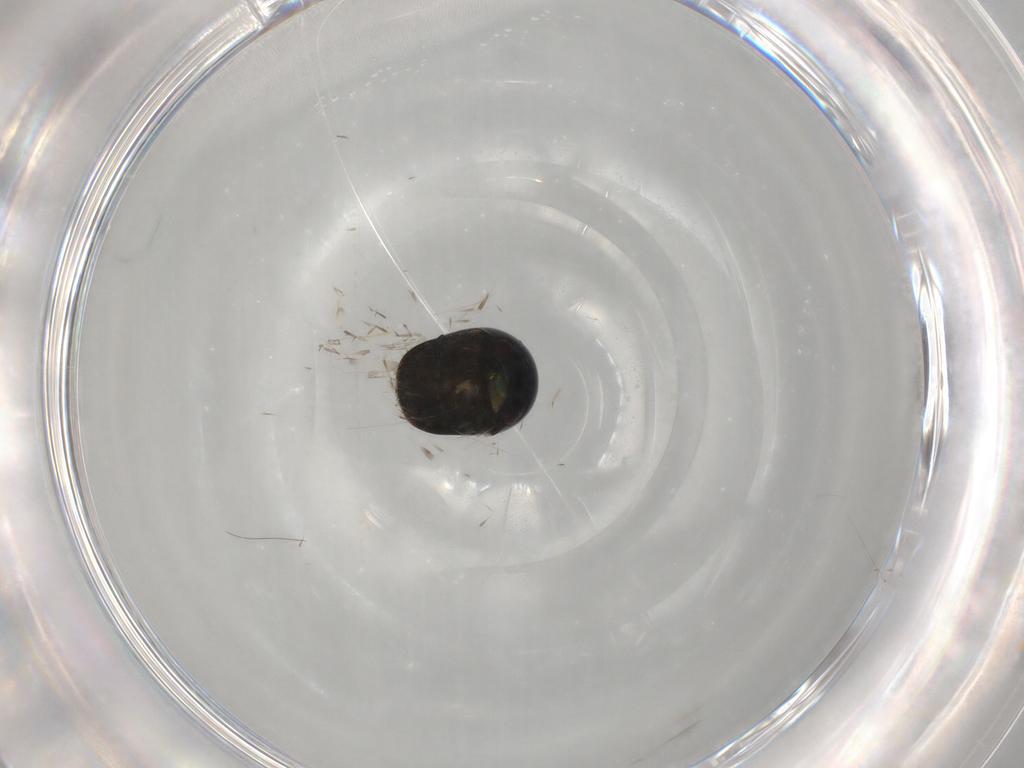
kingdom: Animalia
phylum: Arthropoda
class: Insecta
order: Coleoptera
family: Cybocephalidae
